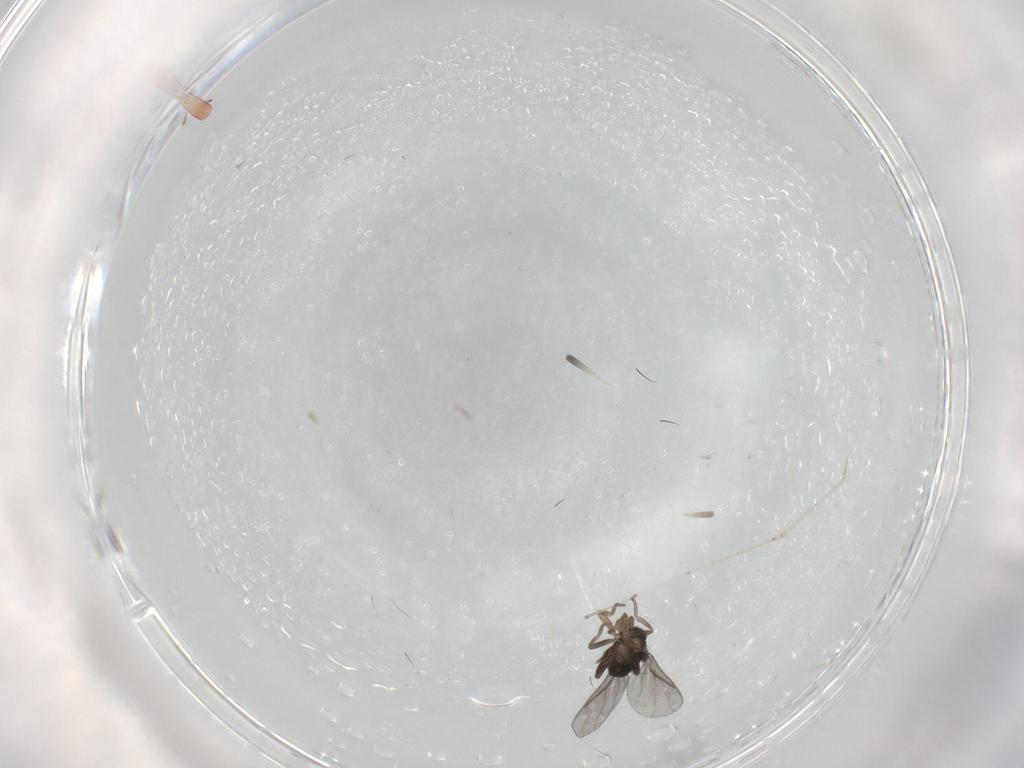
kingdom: Animalia
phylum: Arthropoda
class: Insecta
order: Diptera
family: Cecidomyiidae
